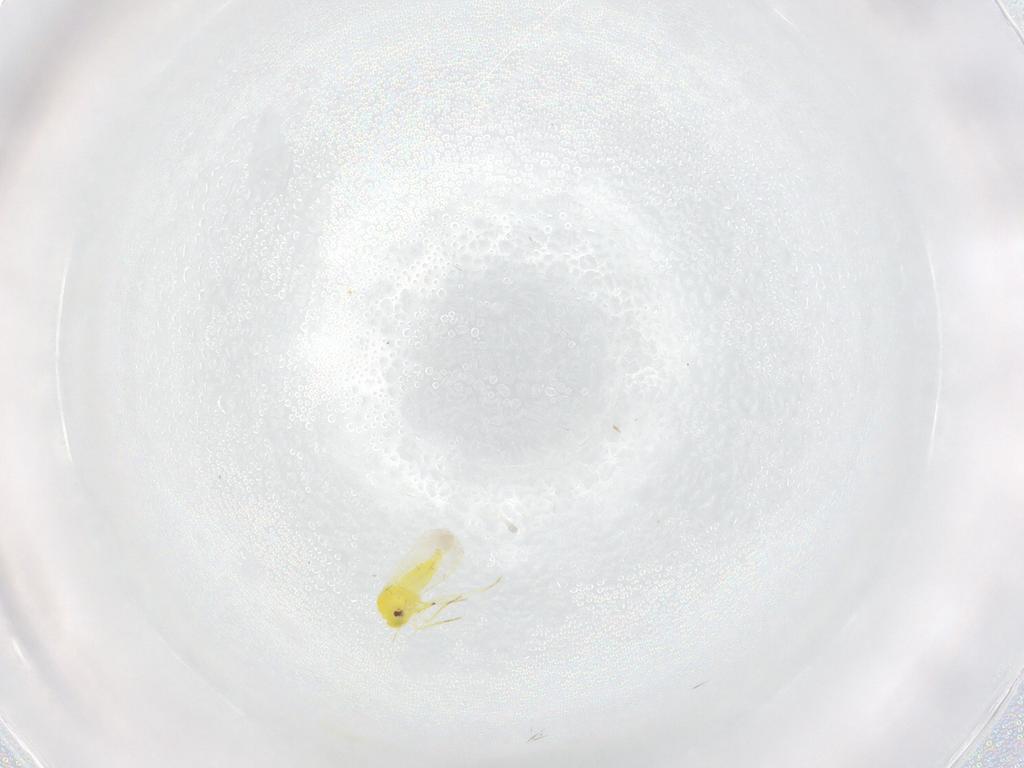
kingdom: Animalia
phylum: Arthropoda
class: Insecta
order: Hemiptera
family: Aleyrodidae
